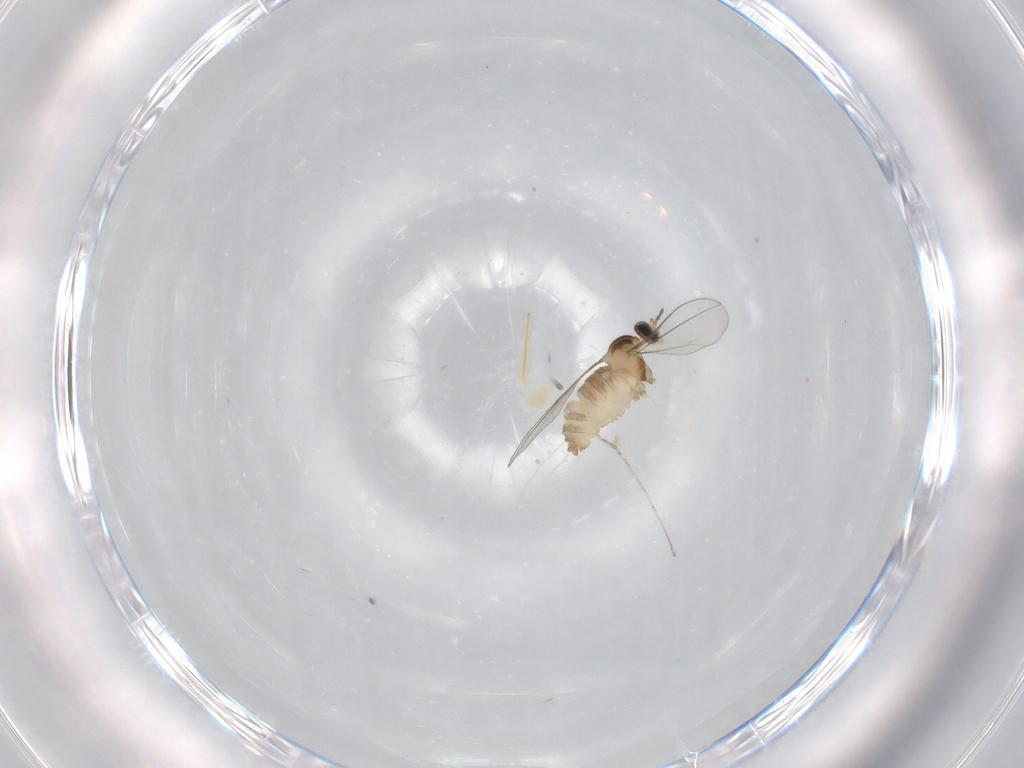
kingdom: Animalia
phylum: Arthropoda
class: Insecta
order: Diptera
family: Cecidomyiidae
